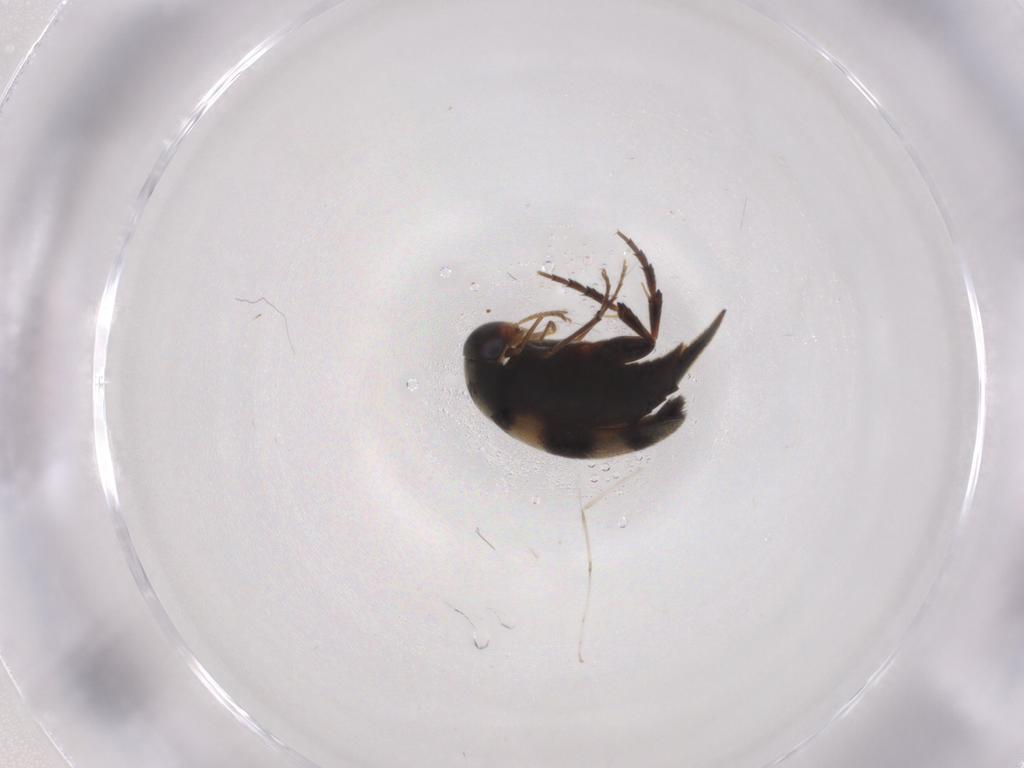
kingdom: Animalia
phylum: Arthropoda
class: Insecta
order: Coleoptera
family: Mordellidae
